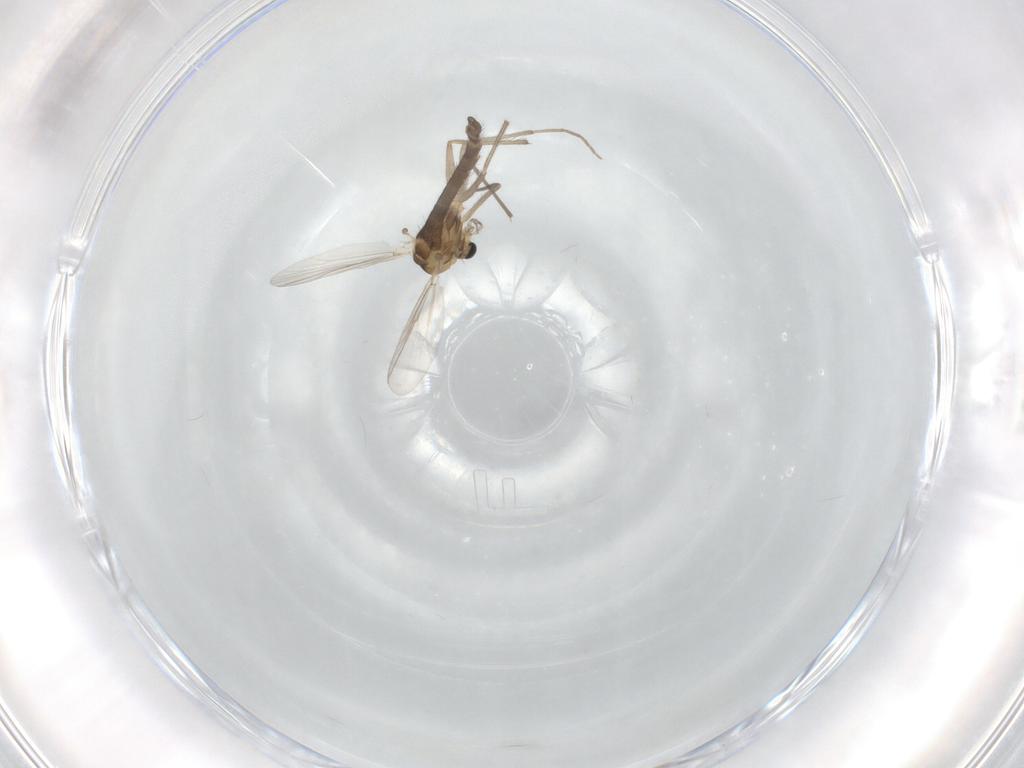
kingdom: Animalia
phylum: Arthropoda
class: Insecta
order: Diptera
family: Chironomidae
